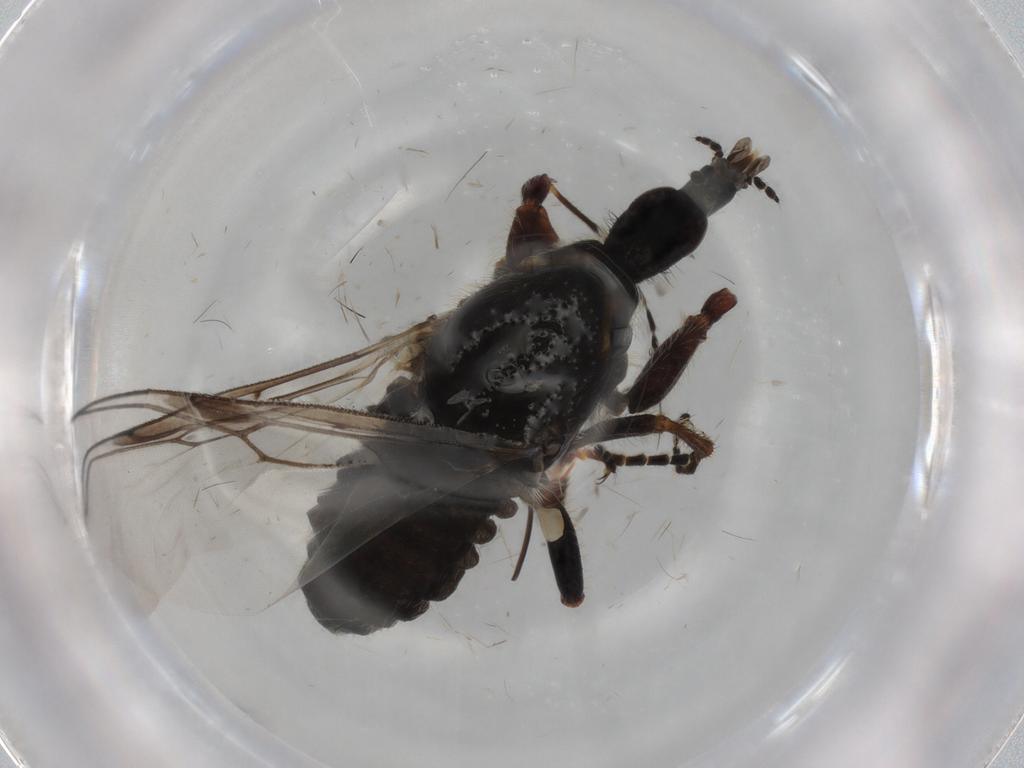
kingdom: Animalia
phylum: Arthropoda
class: Insecta
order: Diptera
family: Bibionidae
